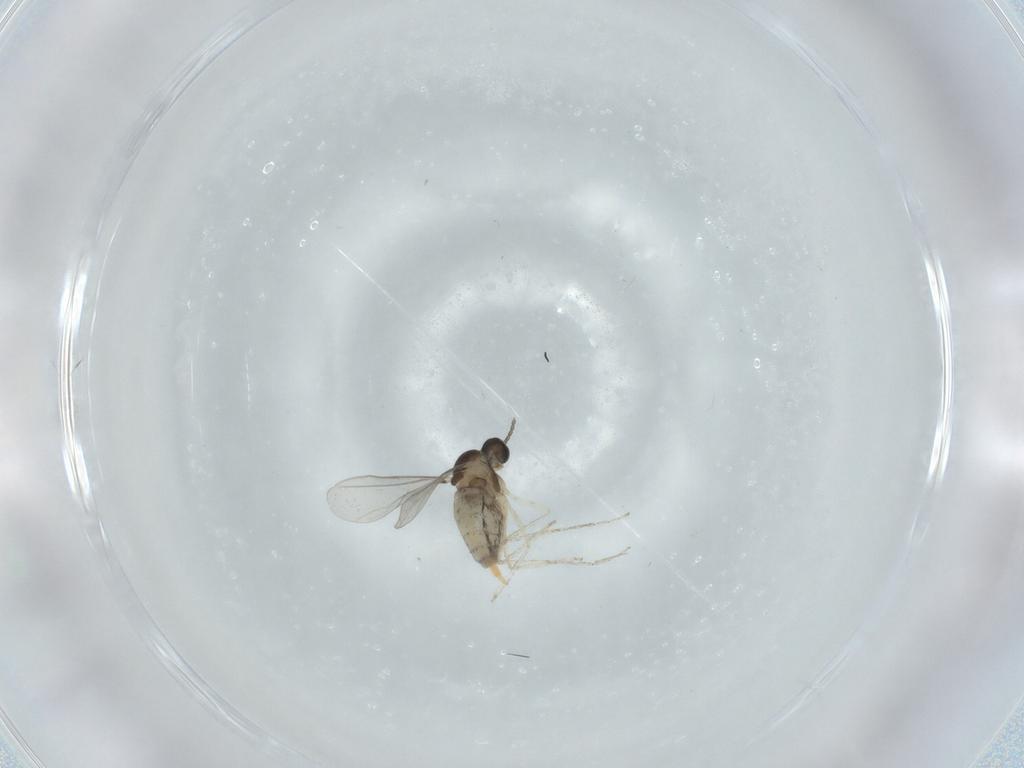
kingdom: Animalia
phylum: Arthropoda
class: Insecta
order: Diptera
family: Cecidomyiidae
